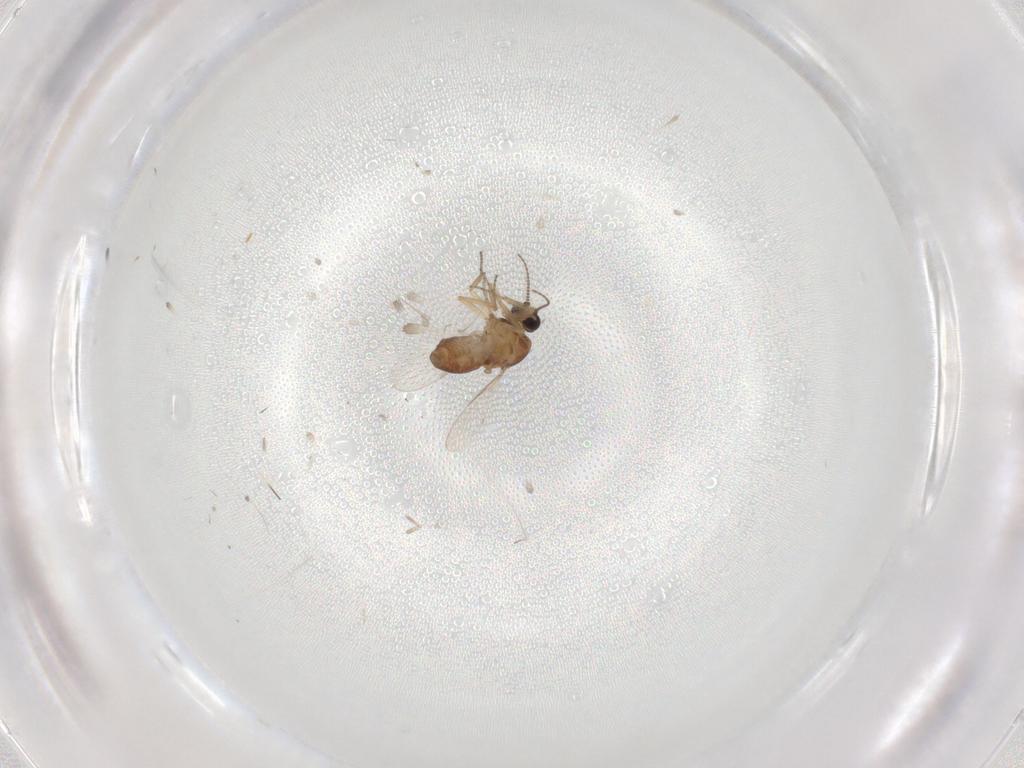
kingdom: Animalia
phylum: Arthropoda
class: Insecta
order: Diptera
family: Ceratopogonidae
